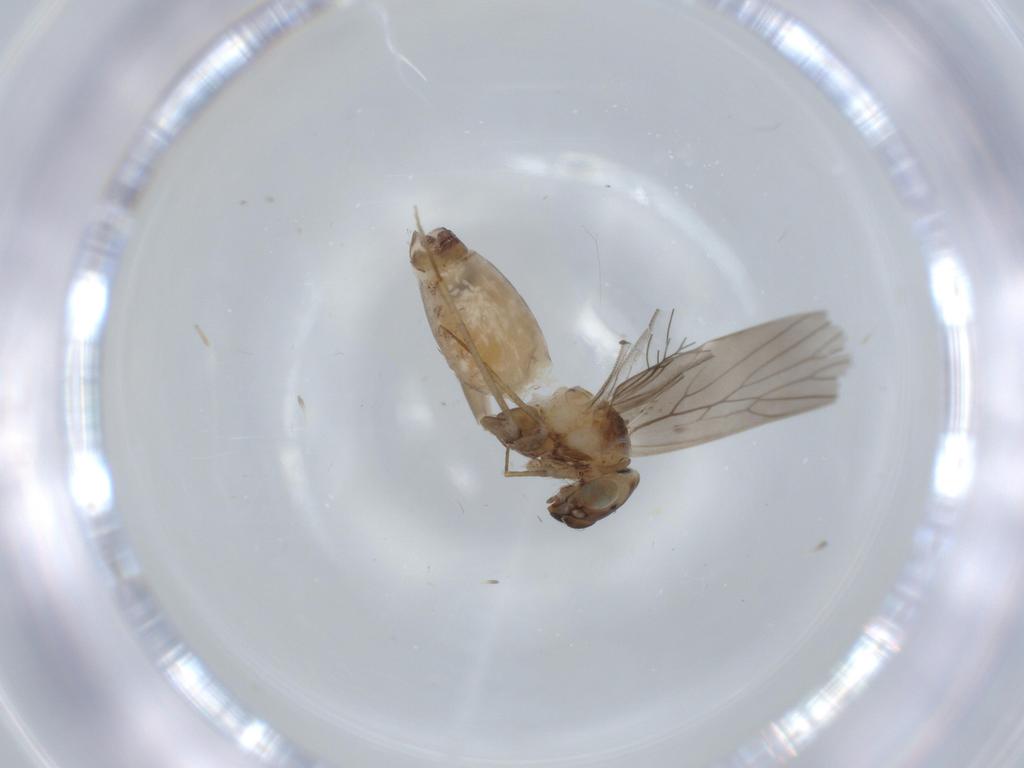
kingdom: Animalia
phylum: Arthropoda
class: Insecta
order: Psocodea
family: Lepidopsocidae
